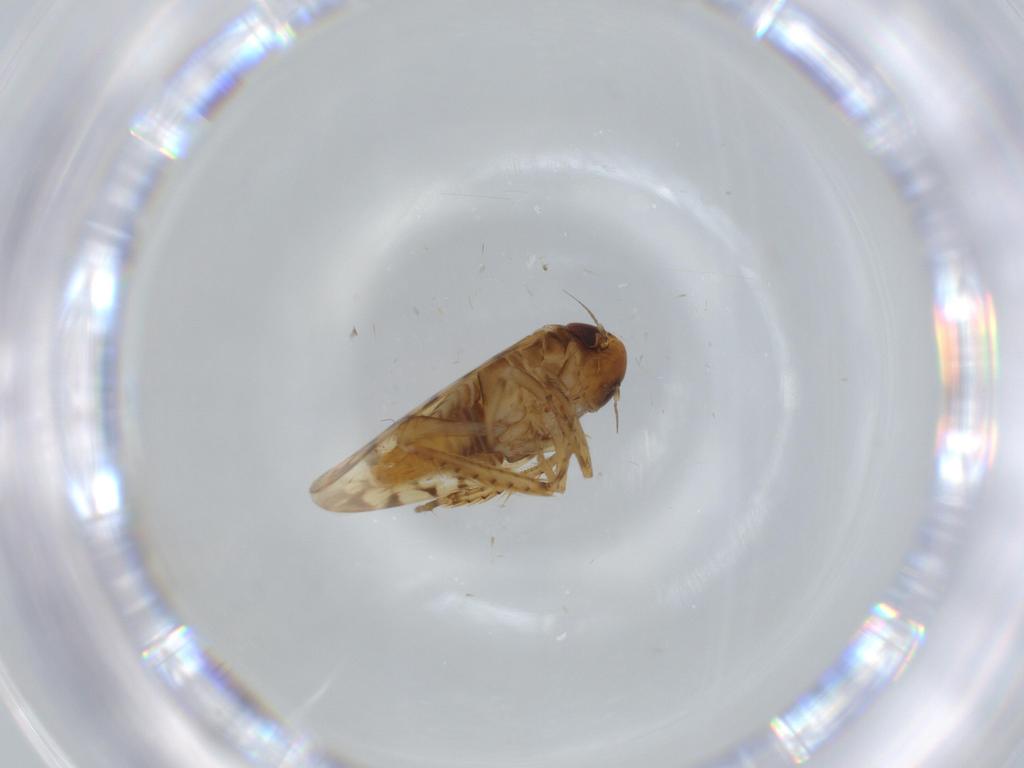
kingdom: Animalia
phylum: Arthropoda
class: Insecta
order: Hemiptera
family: Cicadellidae
